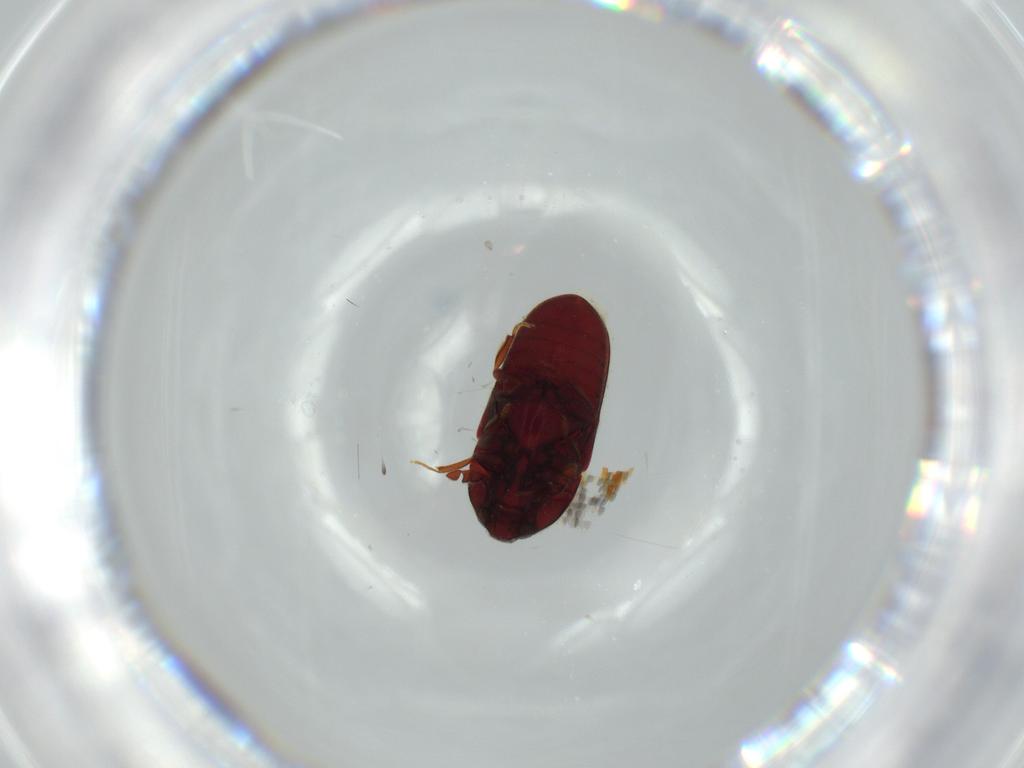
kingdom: Animalia
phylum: Arthropoda
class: Insecta
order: Coleoptera
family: Throscidae
